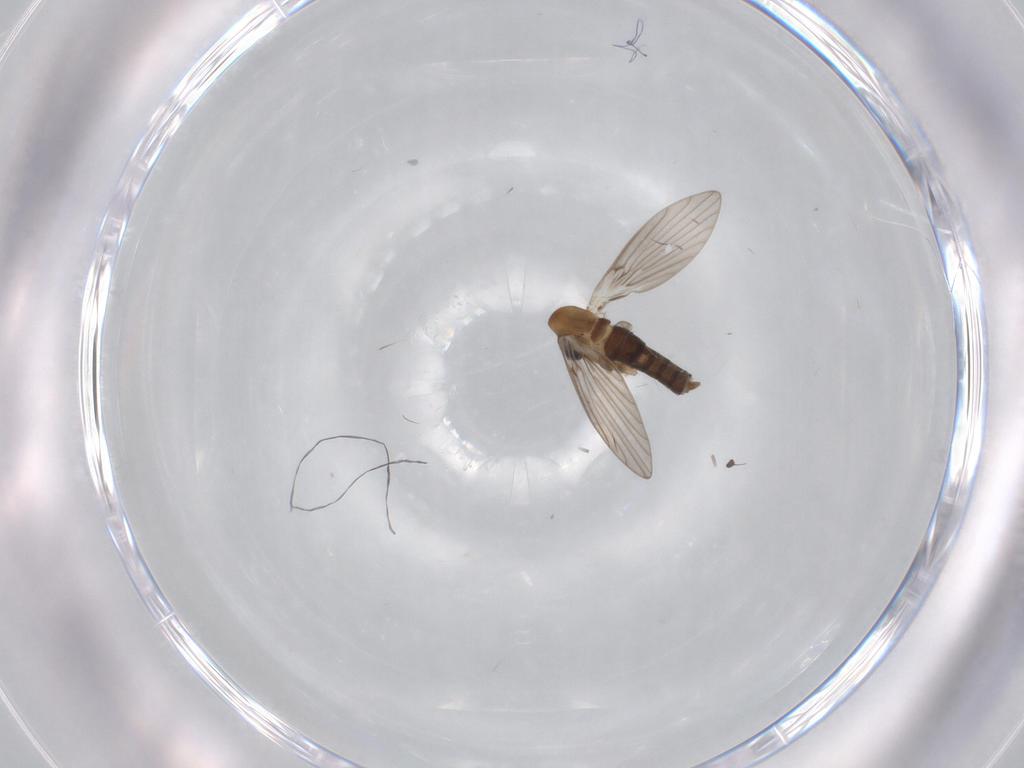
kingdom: Animalia
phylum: Arthropoda
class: Insecta
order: Diptera
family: Psychodidae
